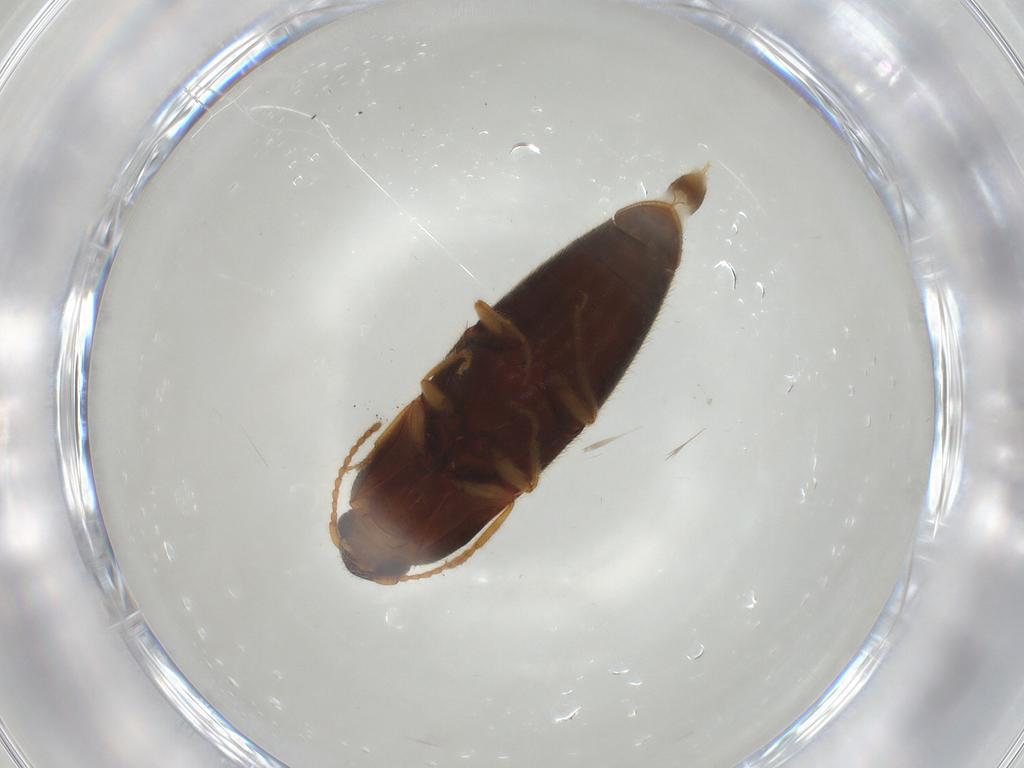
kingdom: Animalia
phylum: Arthropoda
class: Insecta
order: Coleoptera
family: Elateridae
